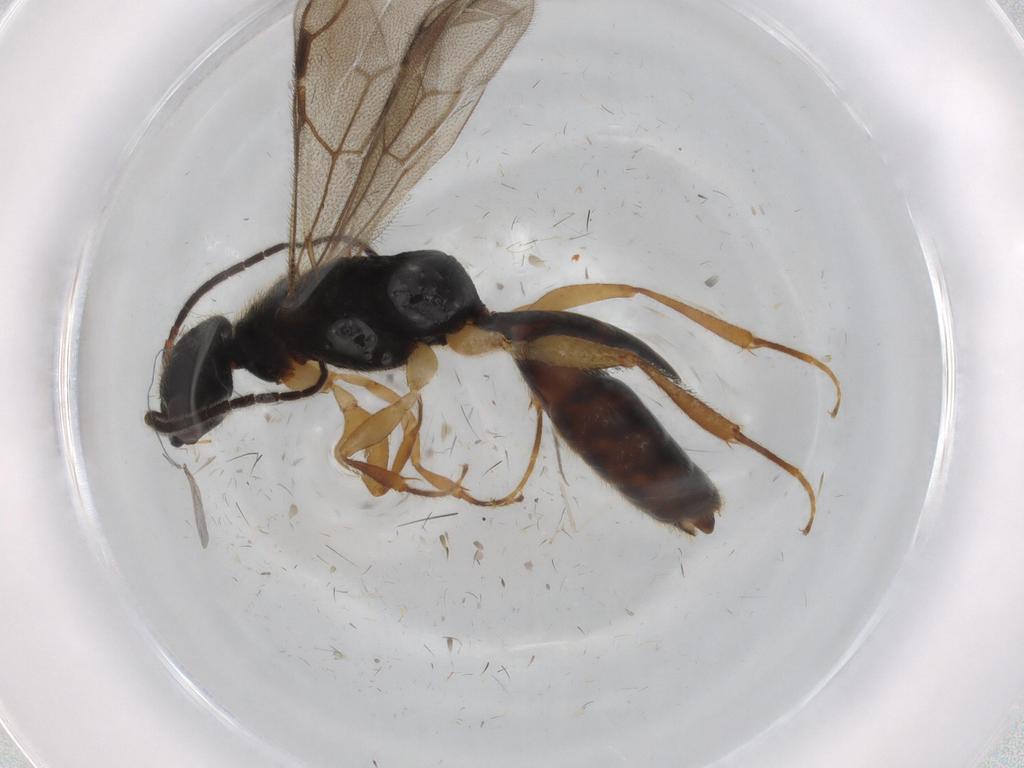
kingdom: Animalia
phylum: Arthropoda
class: Insecta
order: Hymenoptera
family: Bethylidae
